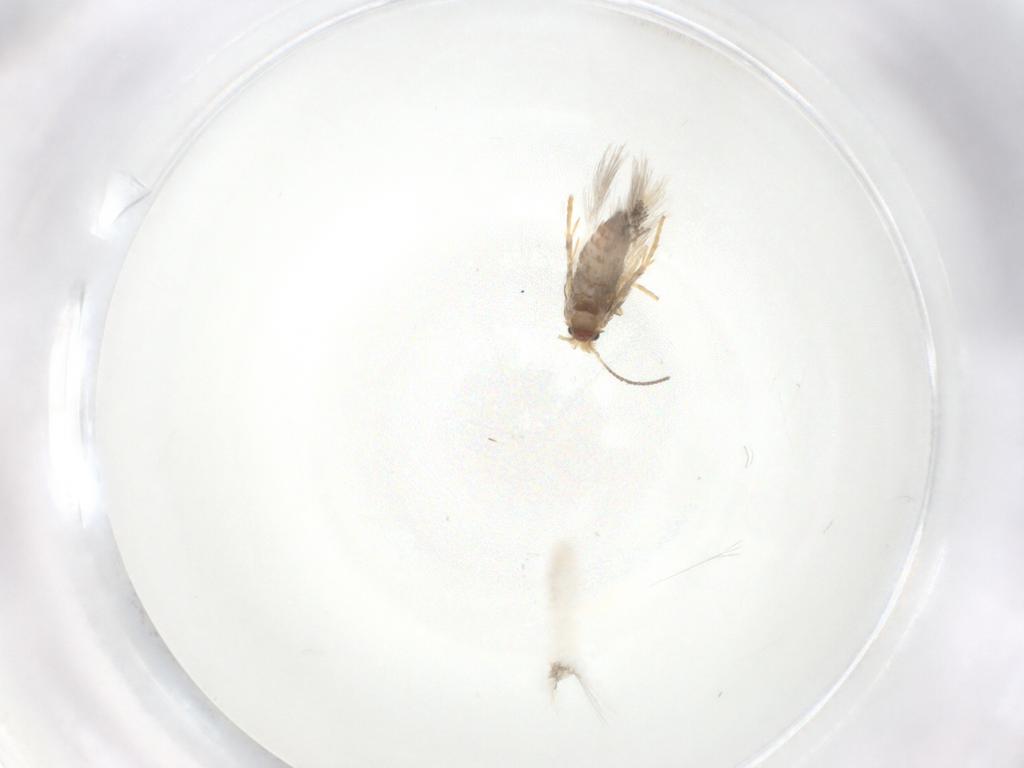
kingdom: Animalia
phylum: Arthropoda
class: Insecta
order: Lepidoptera
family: Nepticulidae
